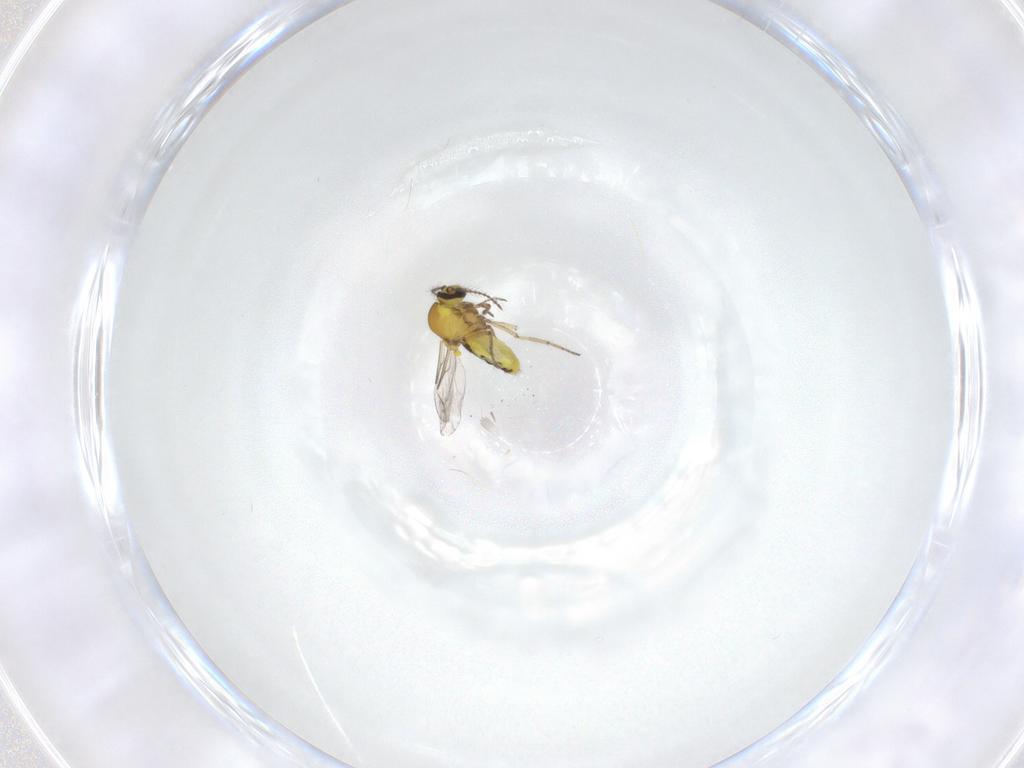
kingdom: Animalia
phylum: Arthropoda
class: Insecta
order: Diptera
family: Ceratopogonidae
